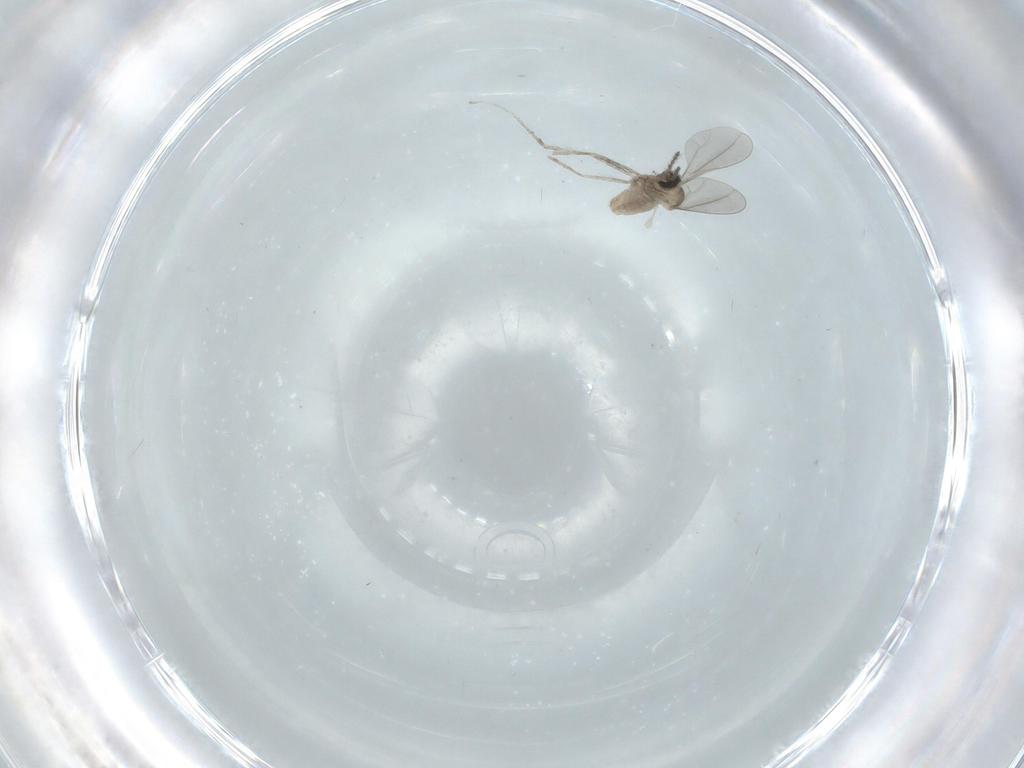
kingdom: Animalia
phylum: Arthropoda
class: Insecta
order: Diptera
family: Cecidomyiidae
